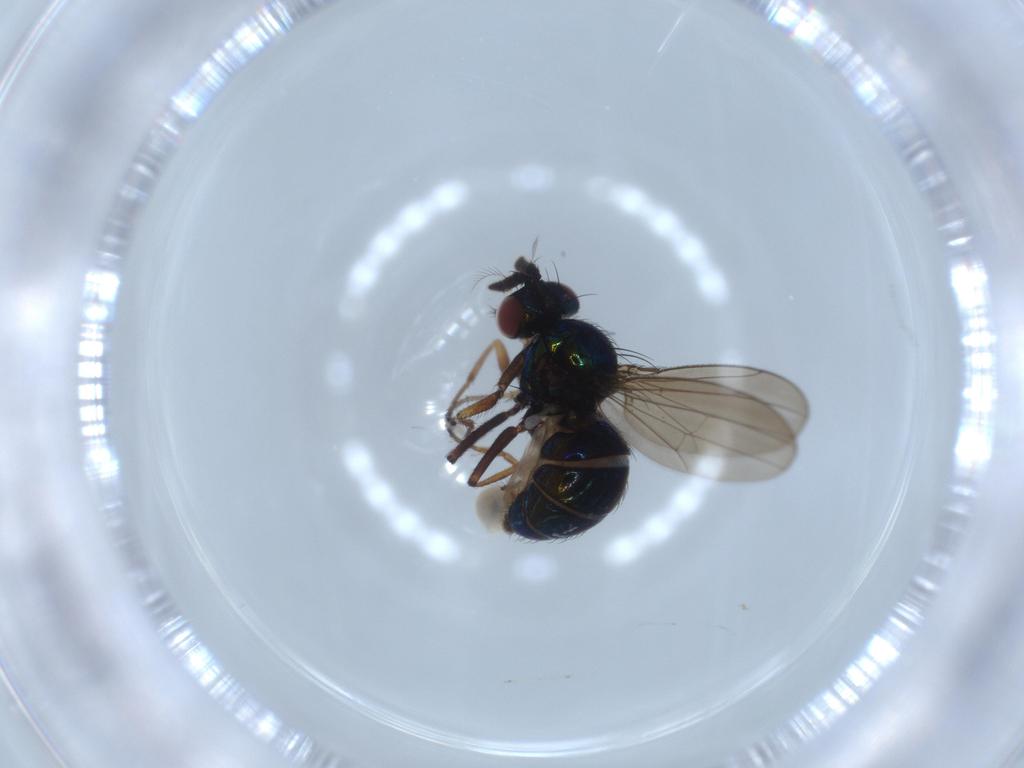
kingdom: Animalia
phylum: Arthropoda
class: Insecta
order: Diptera
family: Ephydridae
